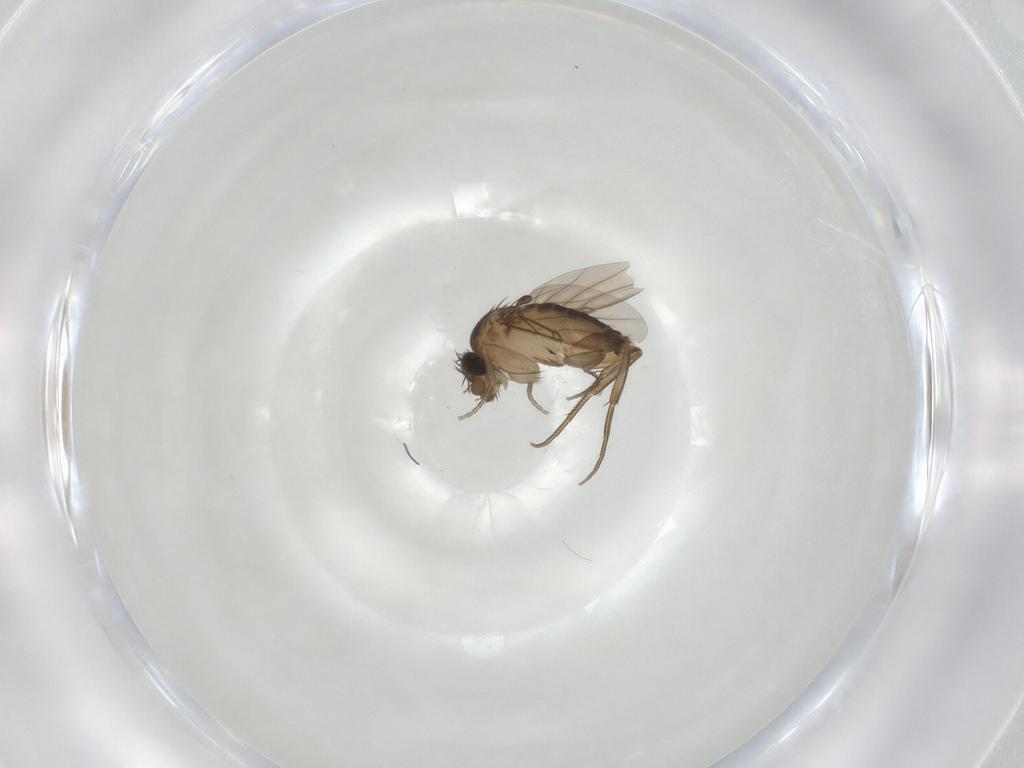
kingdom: Animalia
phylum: Arthropoda
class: Insecta
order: Diptera
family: Phoridae
